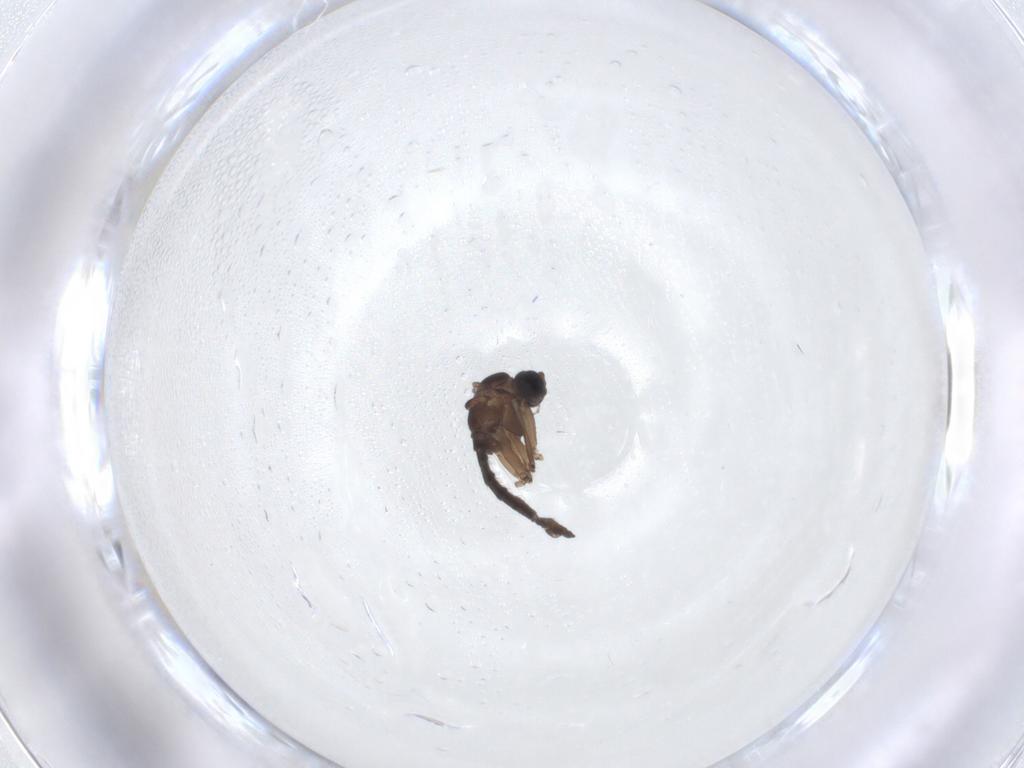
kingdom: Animalia
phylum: Arthropoda
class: Insecta
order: Diptera
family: Sciaridae
